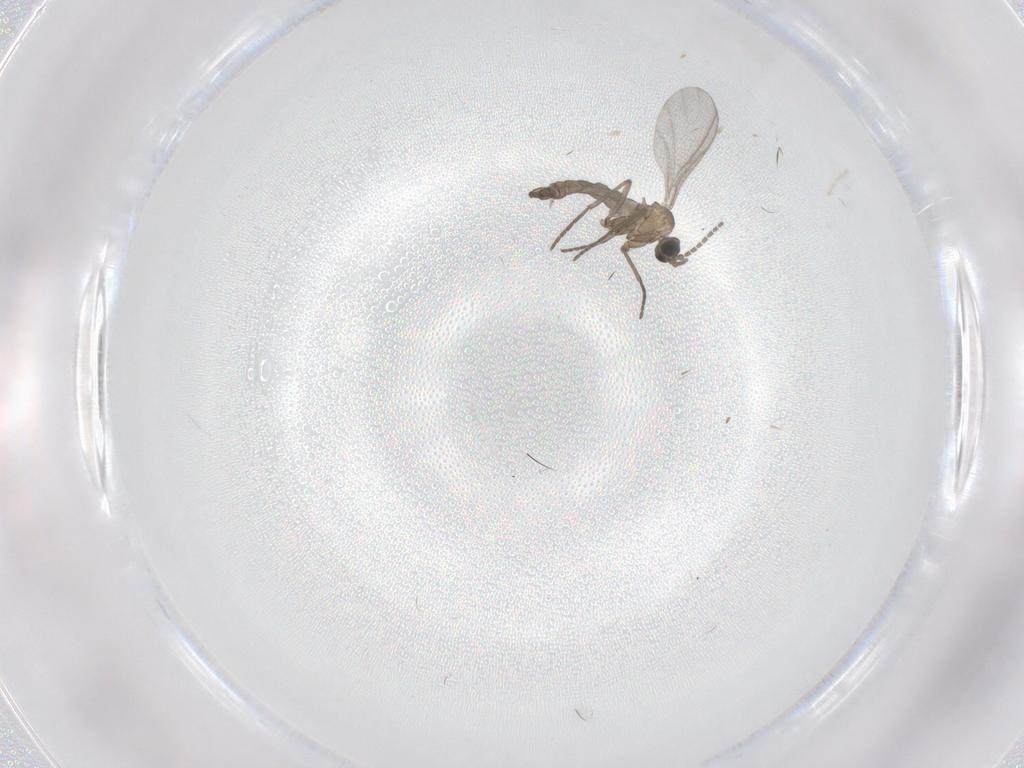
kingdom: Animalia
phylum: Arthropoda
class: Insecta
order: Diptera
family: Sciaridae
